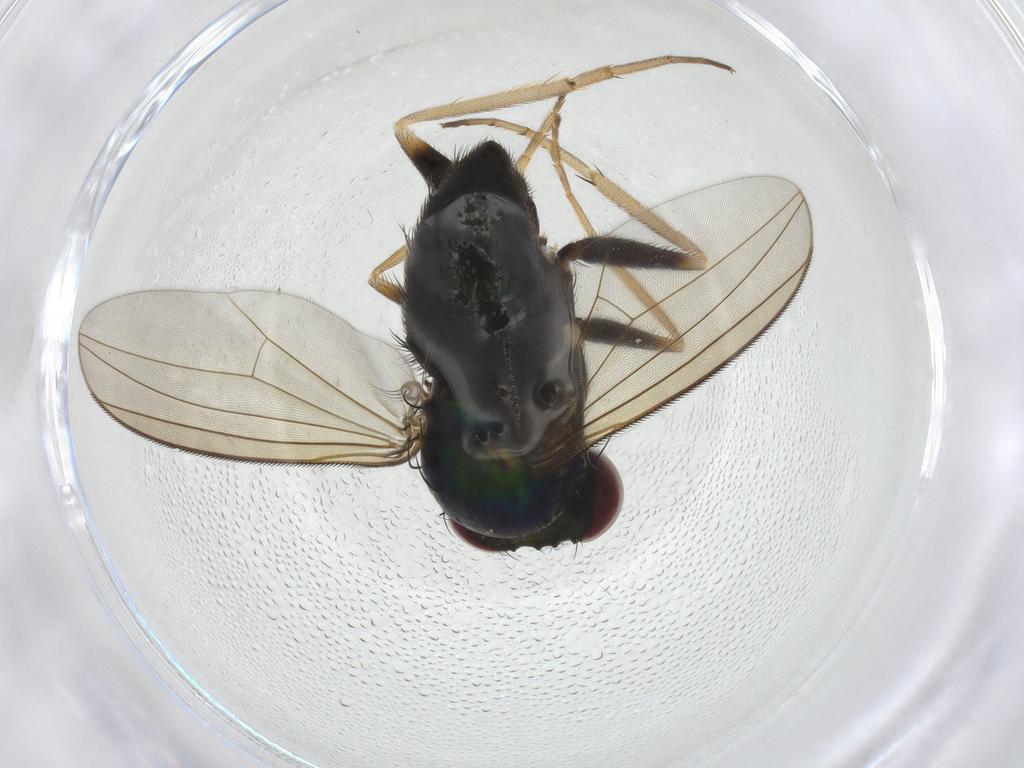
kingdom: Animalia
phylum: Arthropoda
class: Insecta
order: Diptera
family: Dolichopodidae
